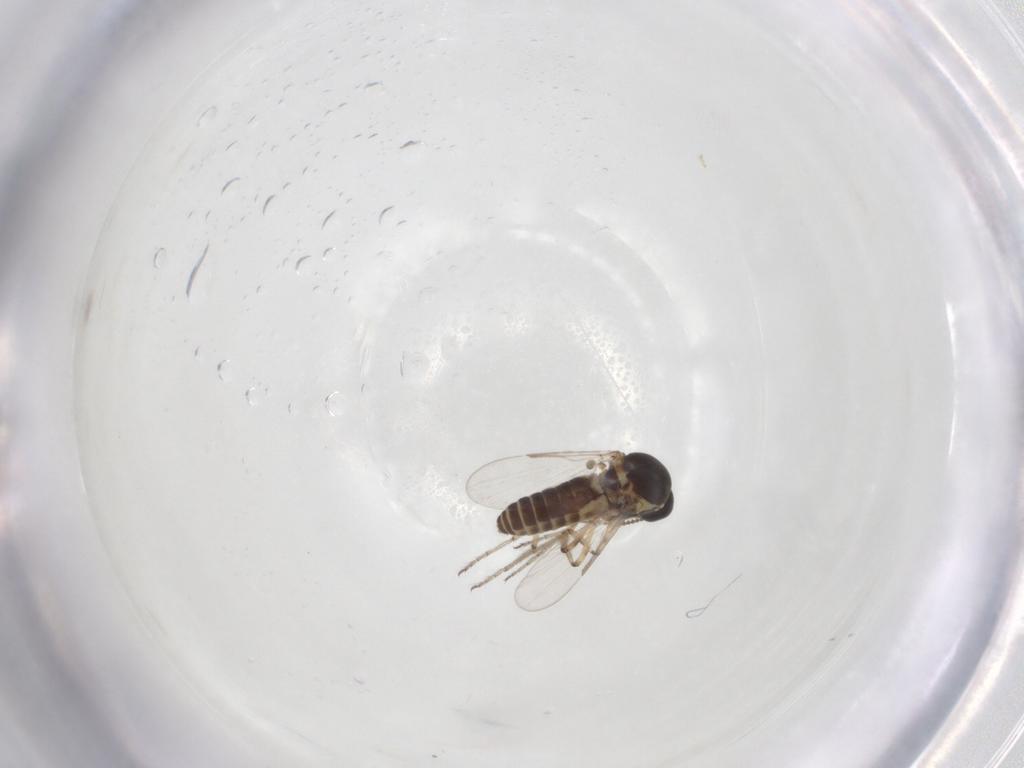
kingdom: Animalia
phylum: Arthropoda
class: Insecta
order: Diptera
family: Ceratopogonidae
